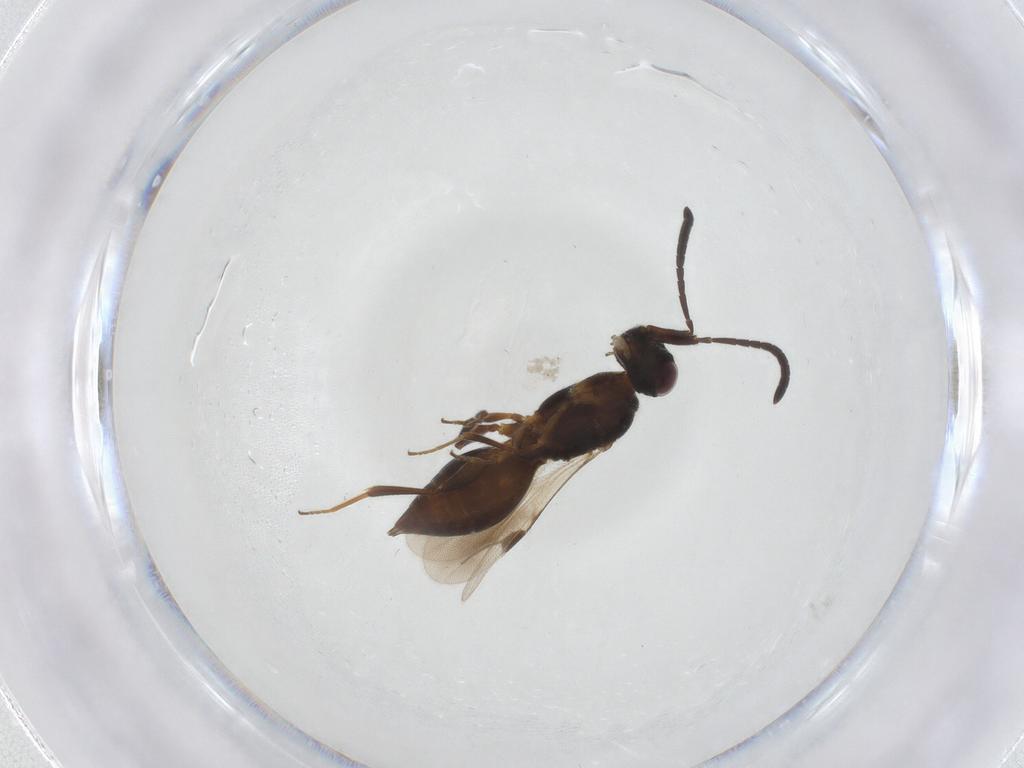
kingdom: Animalia
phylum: Arthropoda
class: Insecta
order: Hymenoptera
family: Megaspilidae
